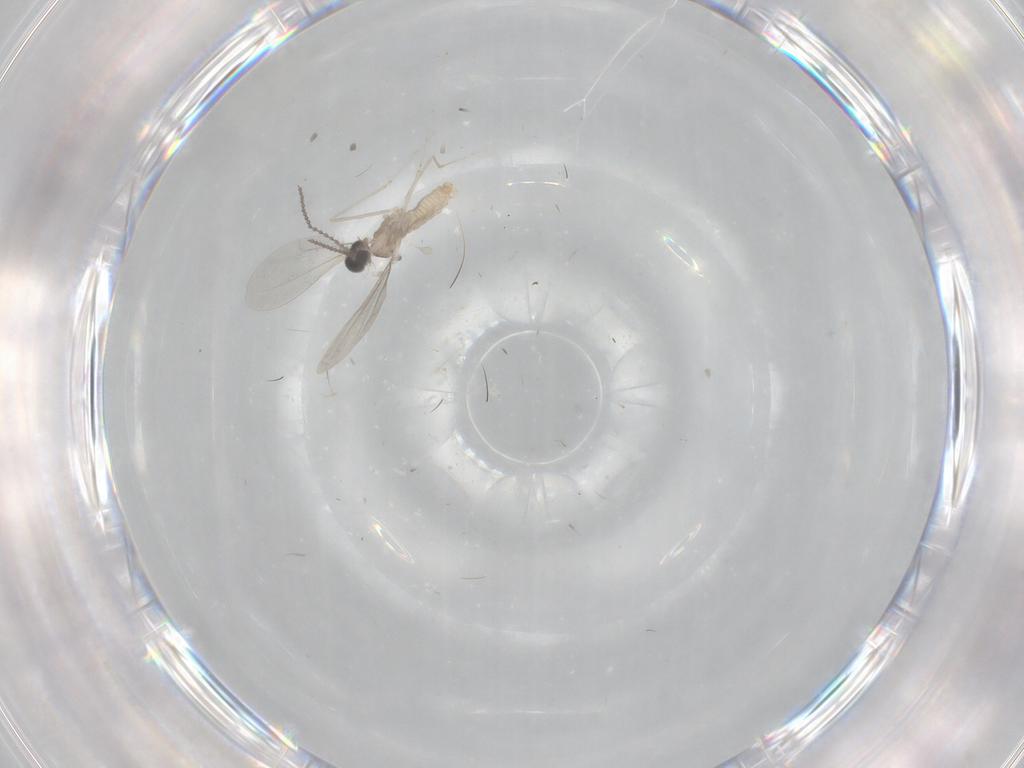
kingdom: Animalia
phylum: Arthropoda
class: Insecta
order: Diptera
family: Cecidomyiidae
